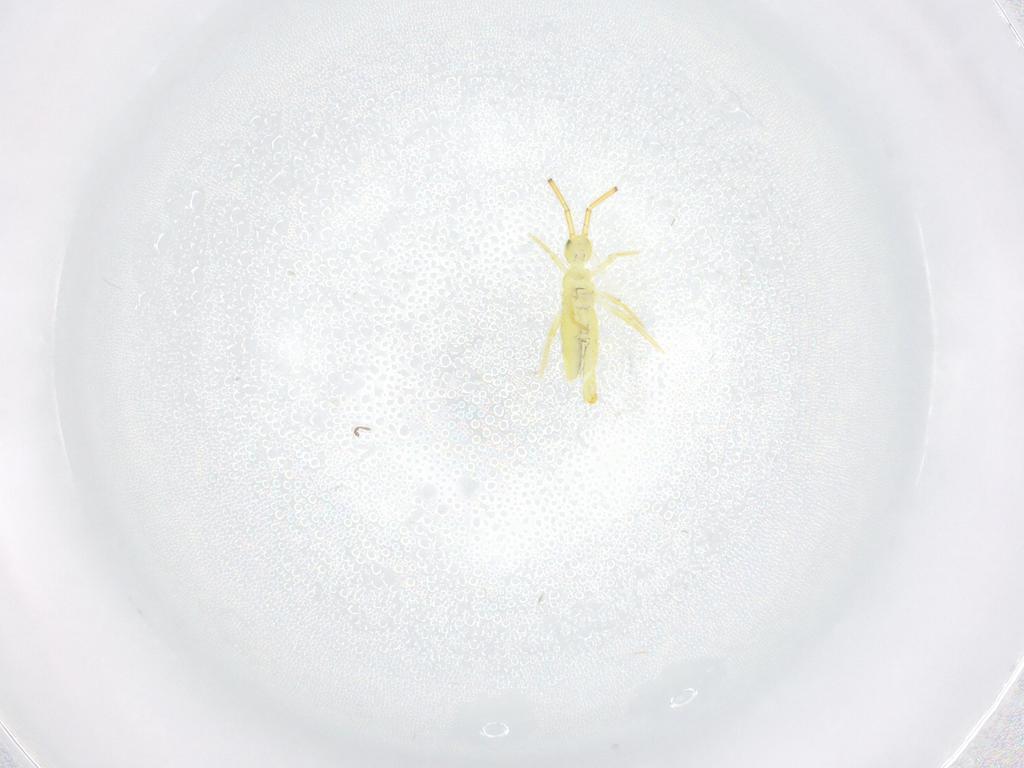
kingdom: Animalia
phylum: Arthropoda
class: Collembola
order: Entomobryomorpha
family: Paronellidae
